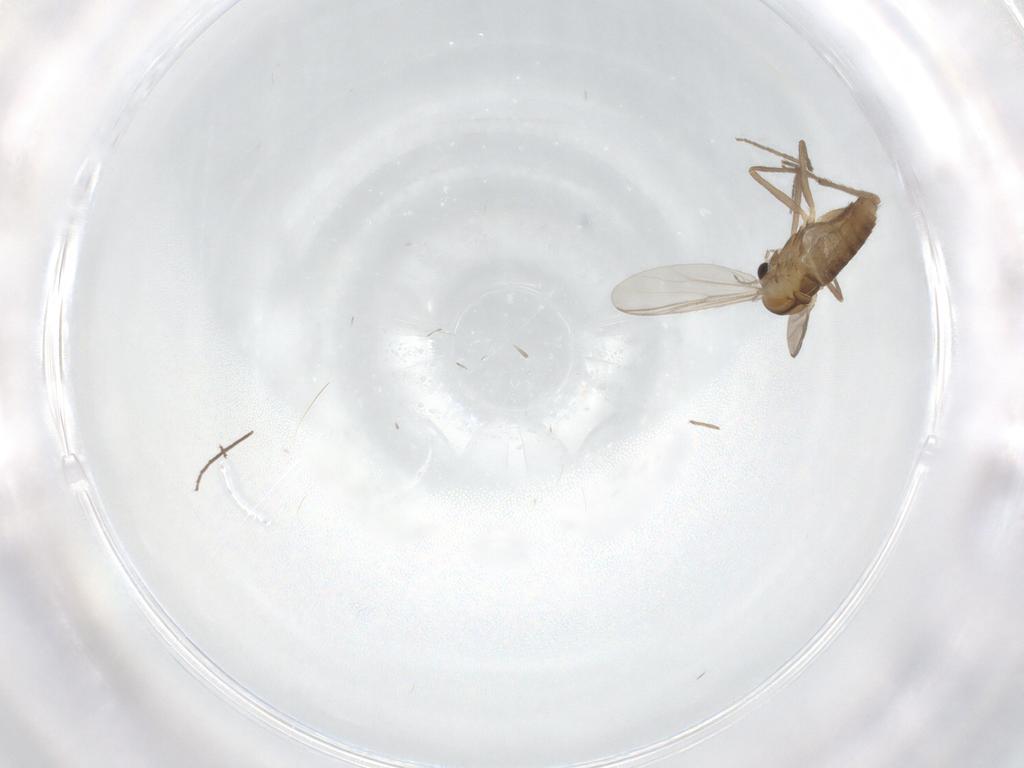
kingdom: Animalia
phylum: Arthropoda
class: Insecta
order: Diptera
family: Chironomidae
